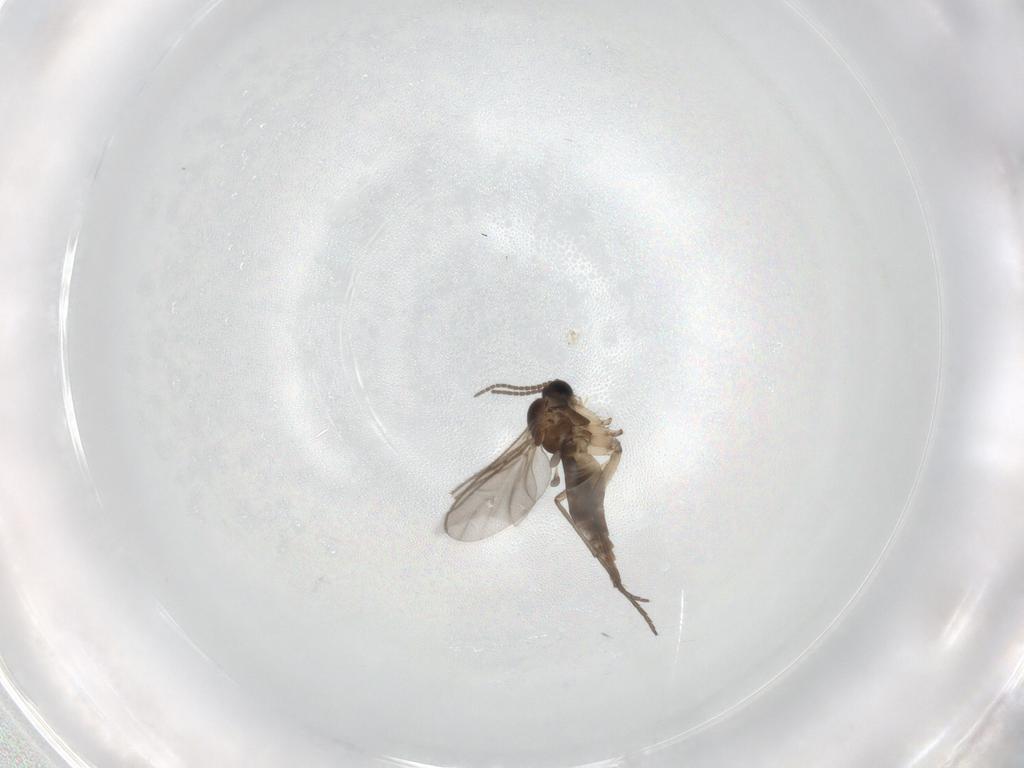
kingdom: Animalia
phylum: Arthropoda
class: Insecta
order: Diptera
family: Sciaridae
